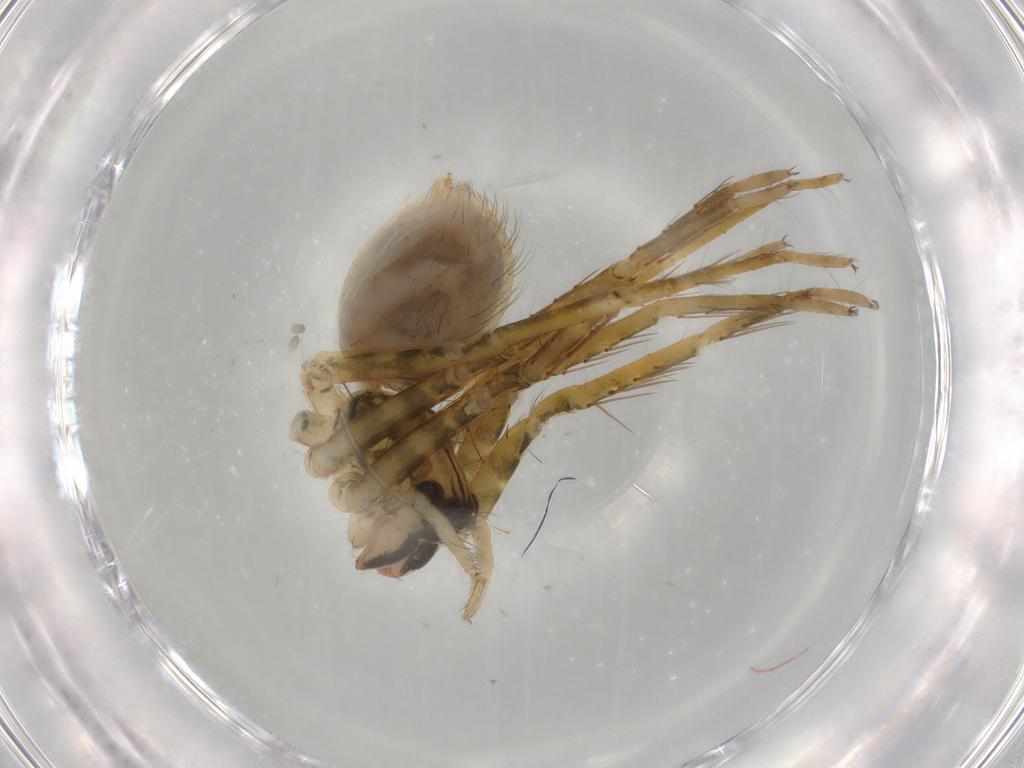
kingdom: Animalia
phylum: Arthropoda
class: Arachnida
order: Araneae
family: Ctenidae
